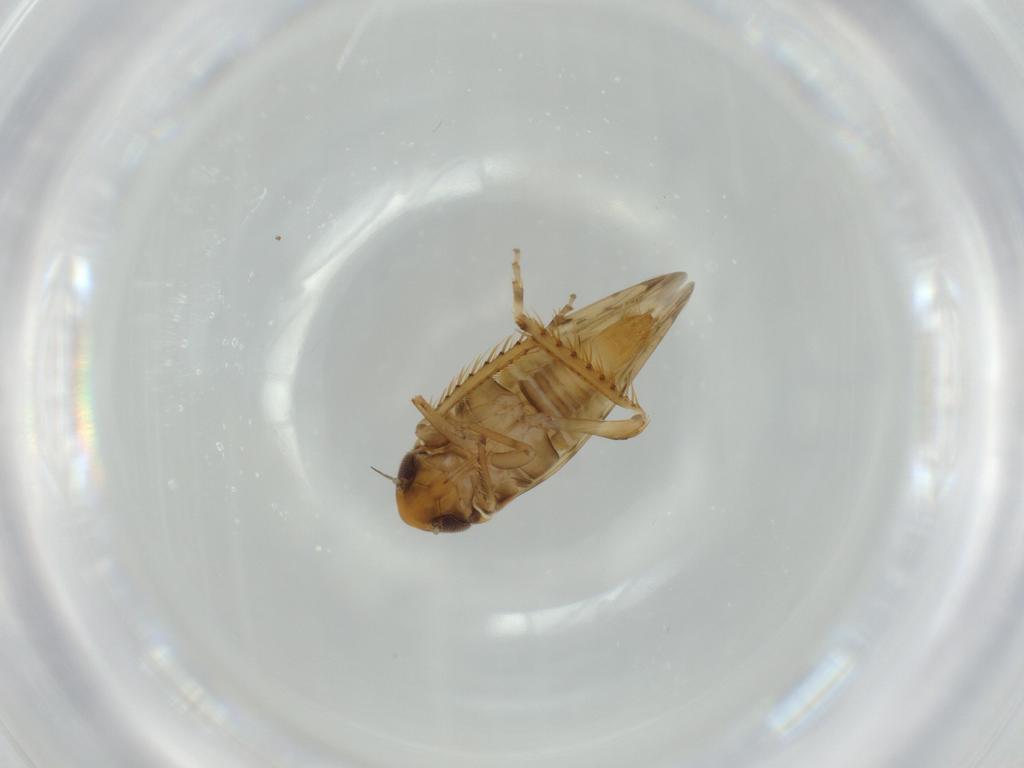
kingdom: Animalia
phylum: Arthropoda
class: Insecta
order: Hemiptera
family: Cicadellidae
